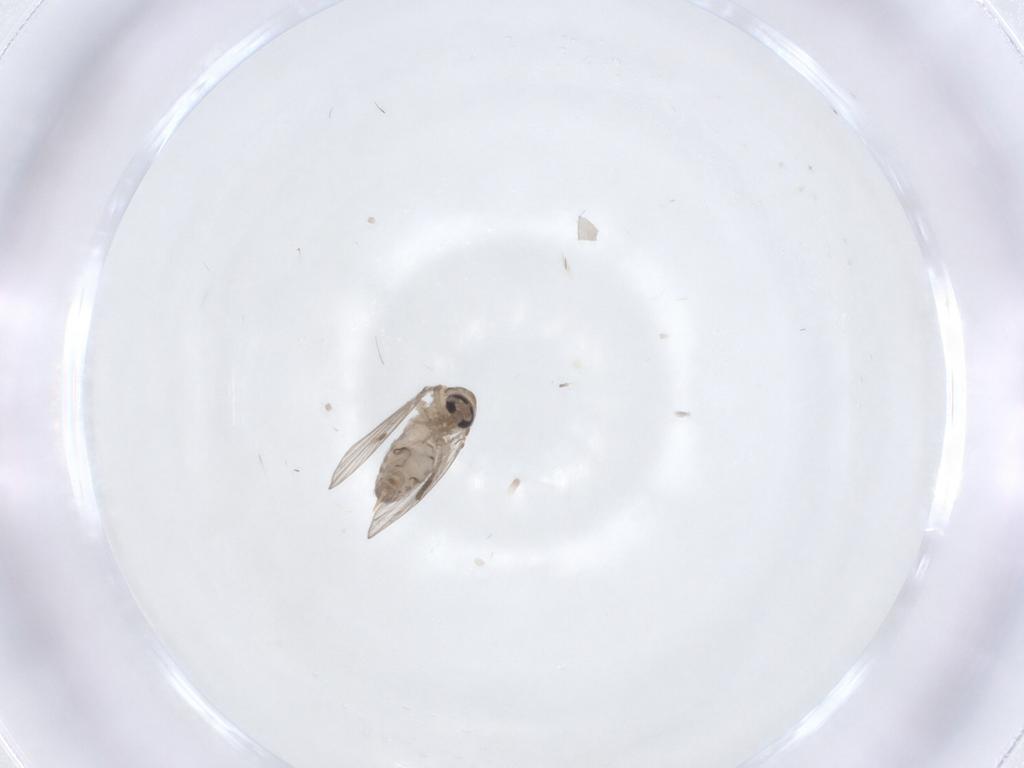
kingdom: Animalia
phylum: Arthropoda
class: Insecta
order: Diptera
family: Psychodidae
